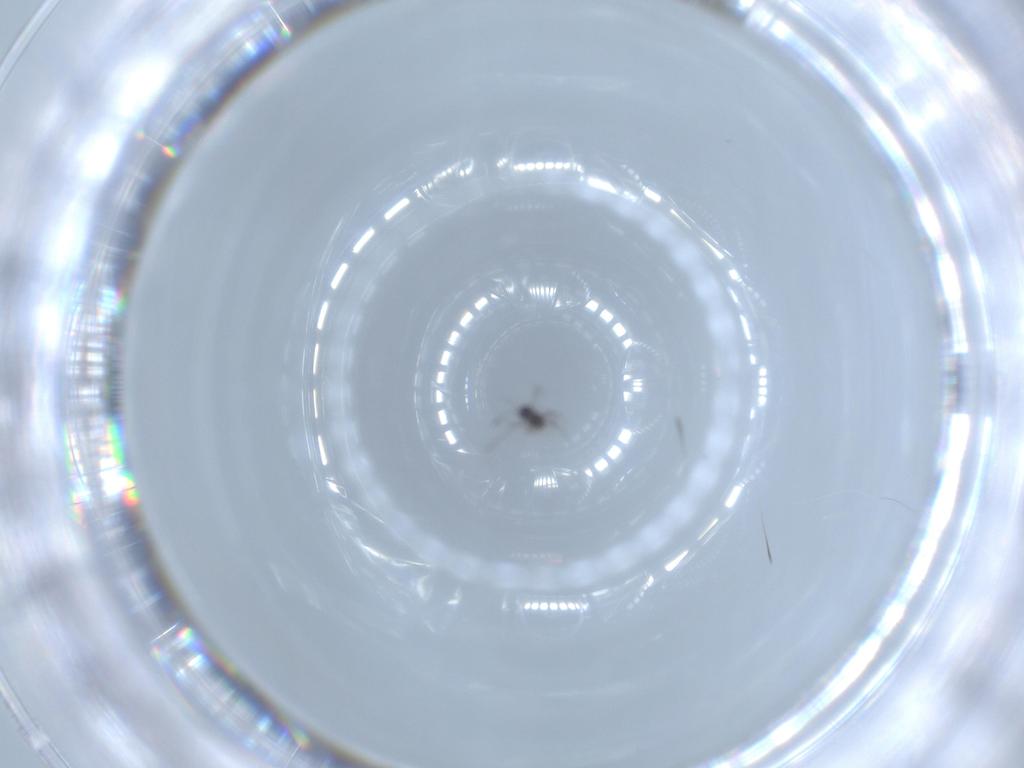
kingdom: Animalia
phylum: Arthropoda
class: Insecta
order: Hymenoptera
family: Mymaridae
